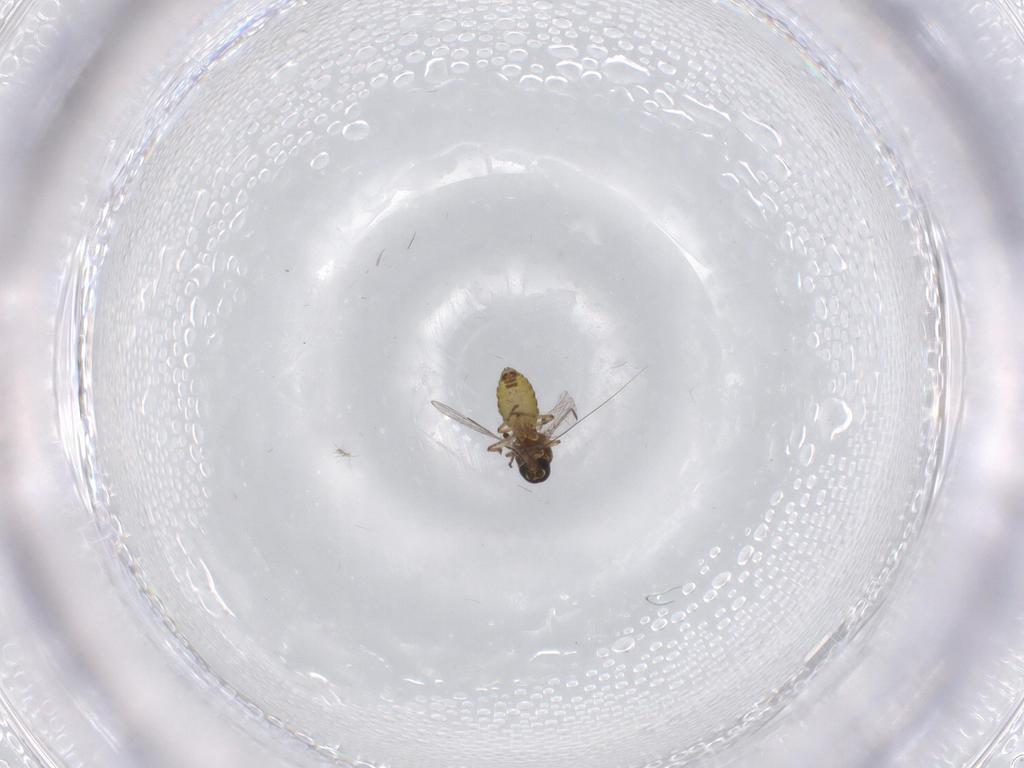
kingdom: Animalia
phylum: Arthropoda
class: Insecta
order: Diptera
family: Ceratopogonidae
